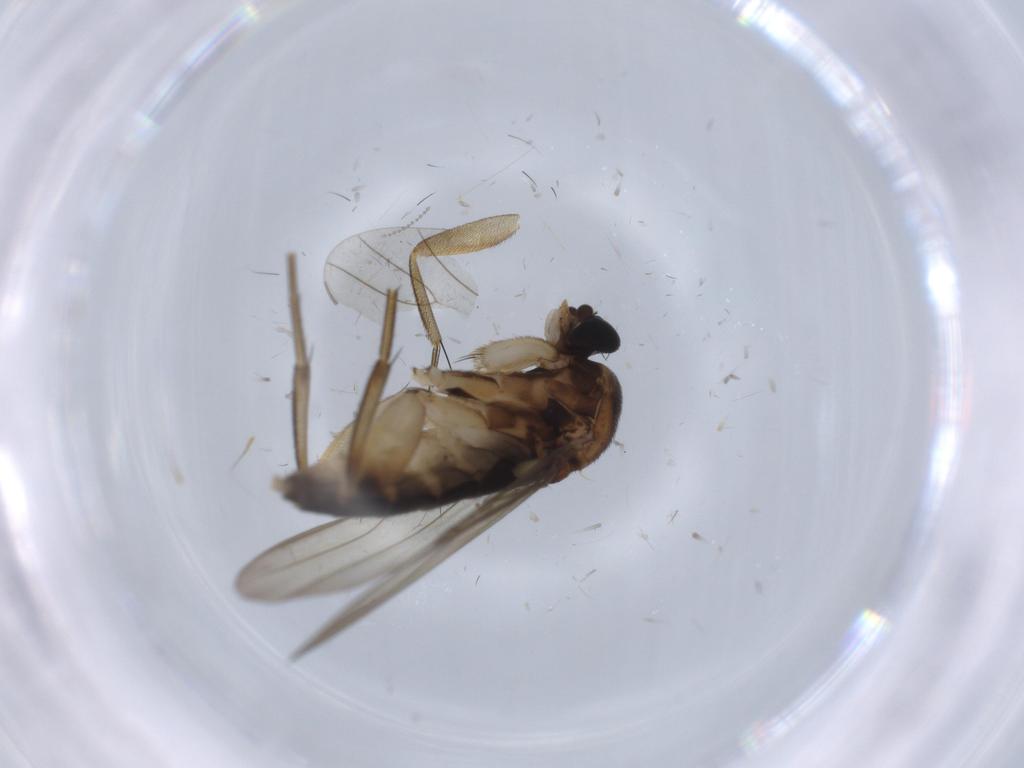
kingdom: Animalia
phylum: Arthropoda
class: Insecta
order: Diptera
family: Phoridae
